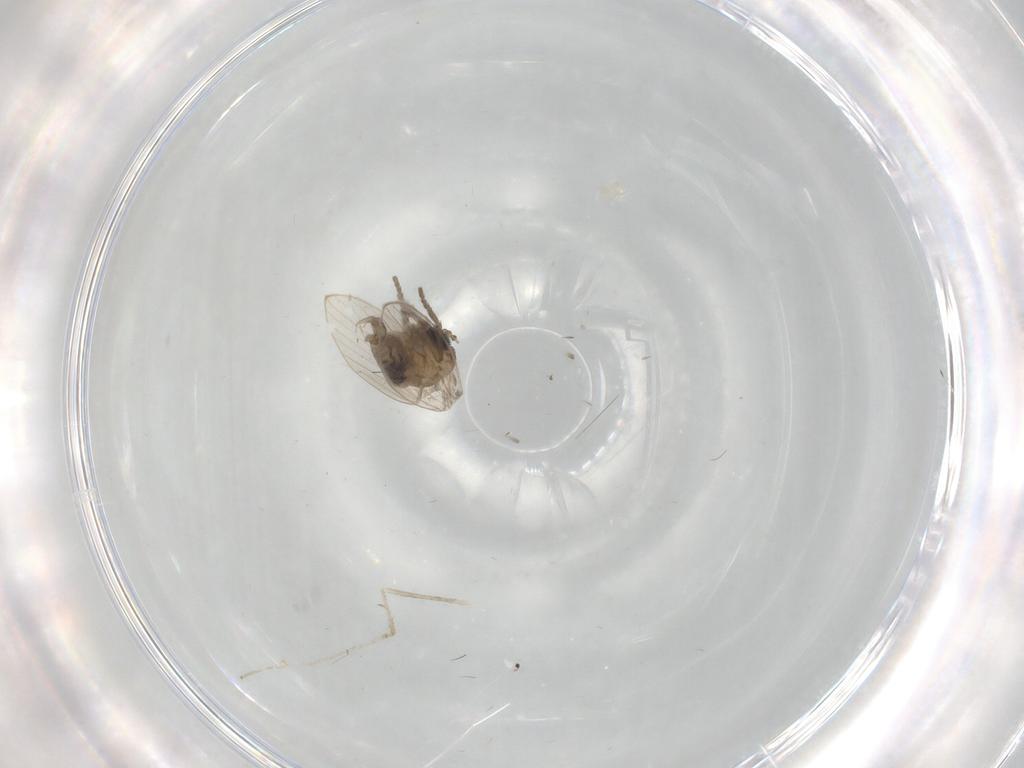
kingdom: Animalia
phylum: Arthropoda
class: Insecta
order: Diptera
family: Psychodidae
